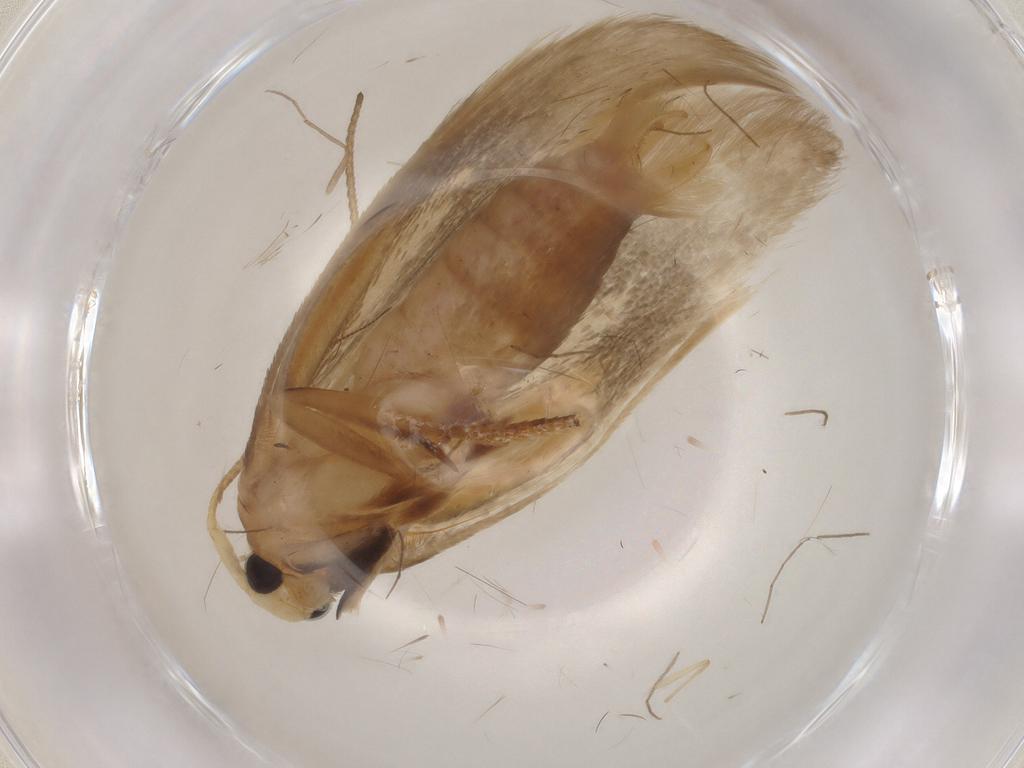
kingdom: Animalia
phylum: Arthropoda
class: Insecta
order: Lepidoptera
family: Geometridae
